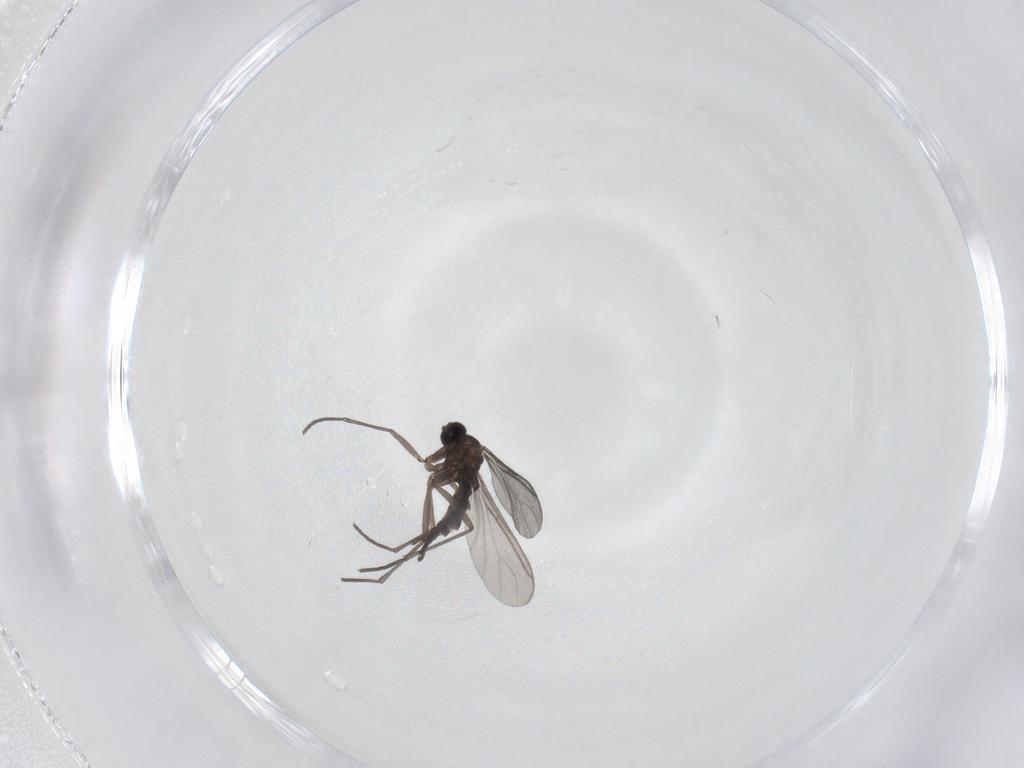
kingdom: Animalia
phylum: Arthropoda
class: Insecta
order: Diptera
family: Sciaridae
